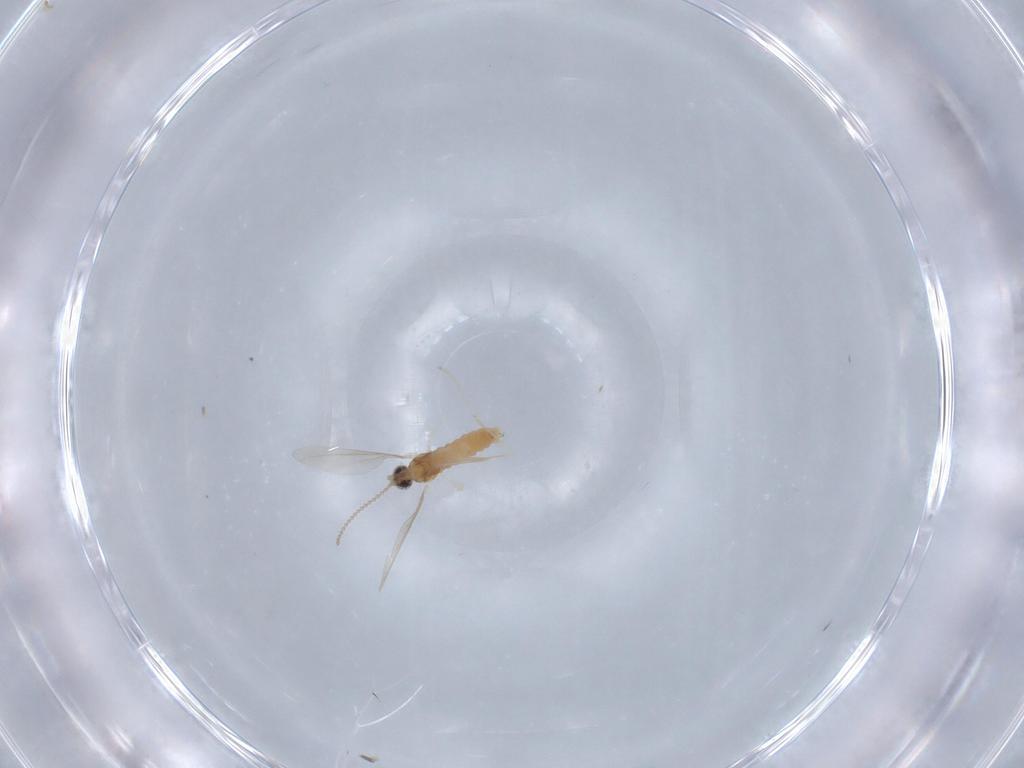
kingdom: Animalia
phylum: Arthropoda
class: Insecta
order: Diptera
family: Cecidomyiidae
